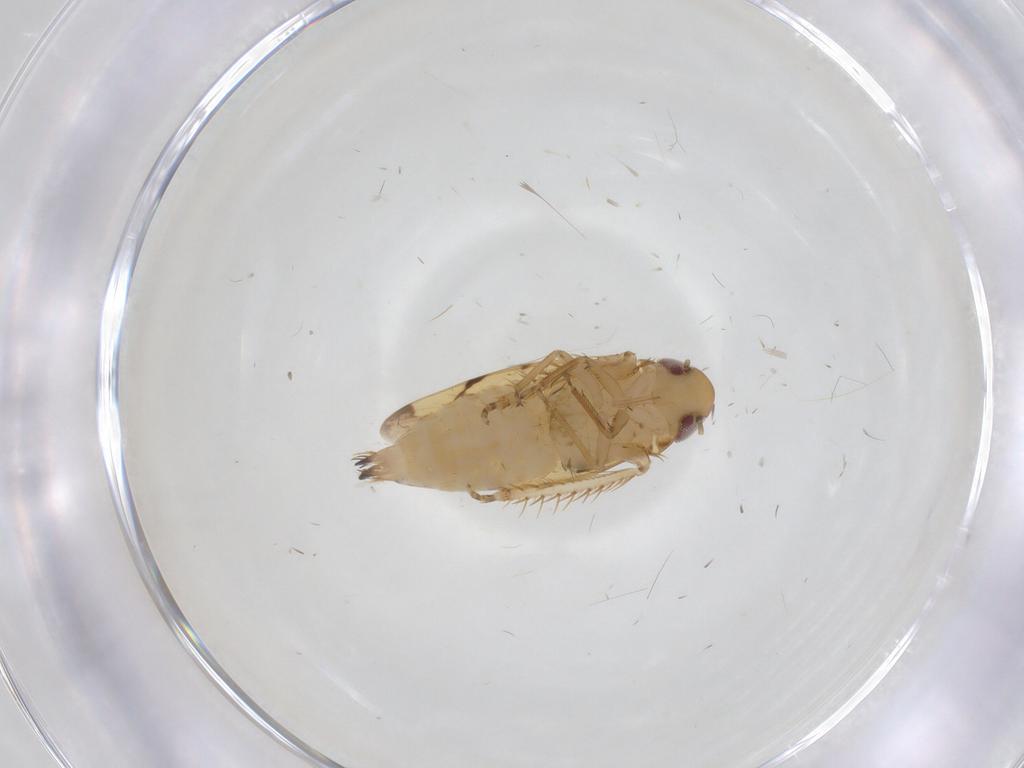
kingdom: Animalia
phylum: Arthropoda
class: Insecta
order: Hemiptera
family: Cicadellidae
